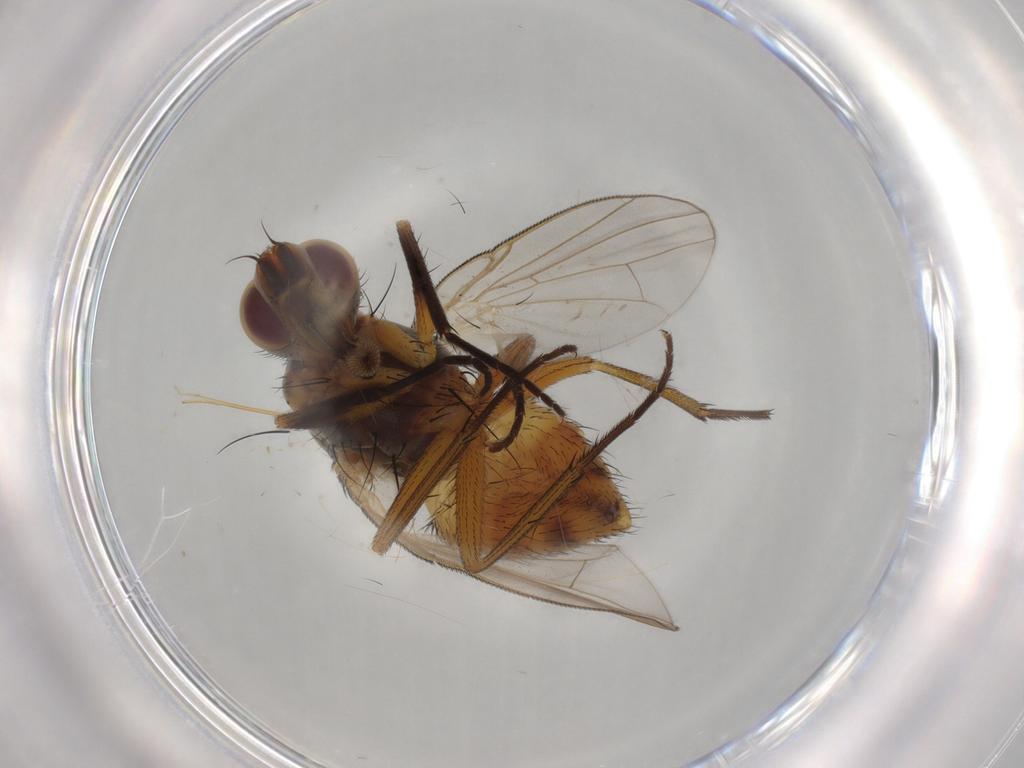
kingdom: Animalia
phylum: Arthropoda
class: Insecta
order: Diptera
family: Muscidae
